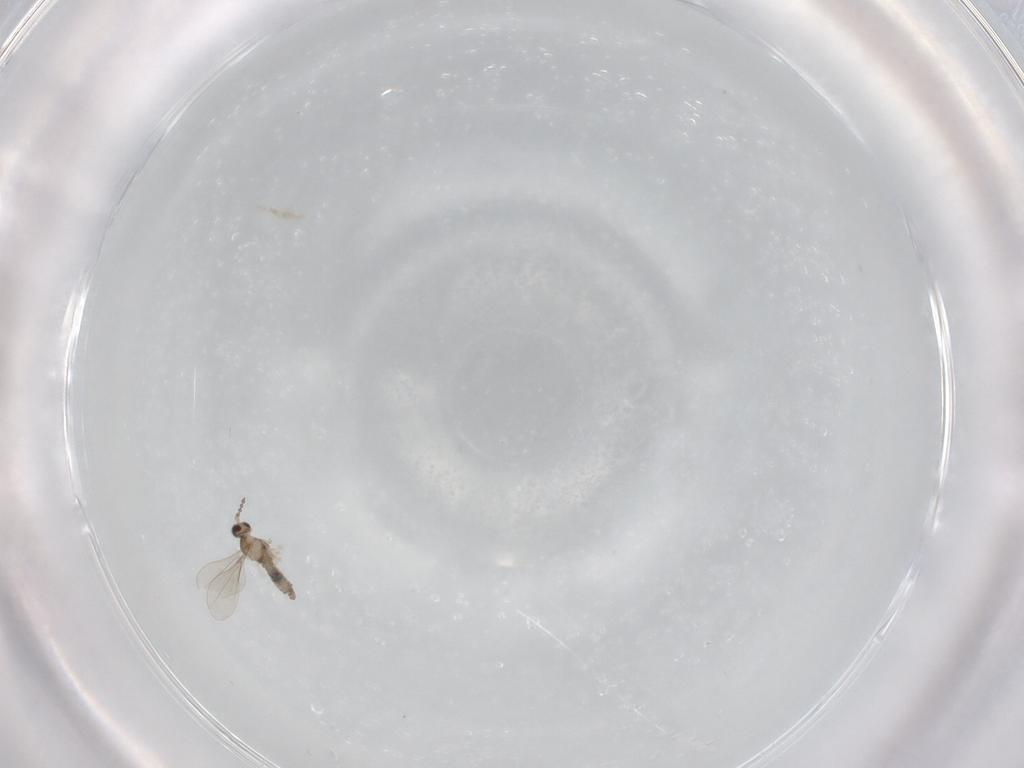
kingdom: Animalia
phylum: Arthropoda
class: Insecta
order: Diptera
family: Cecidomyiidae
